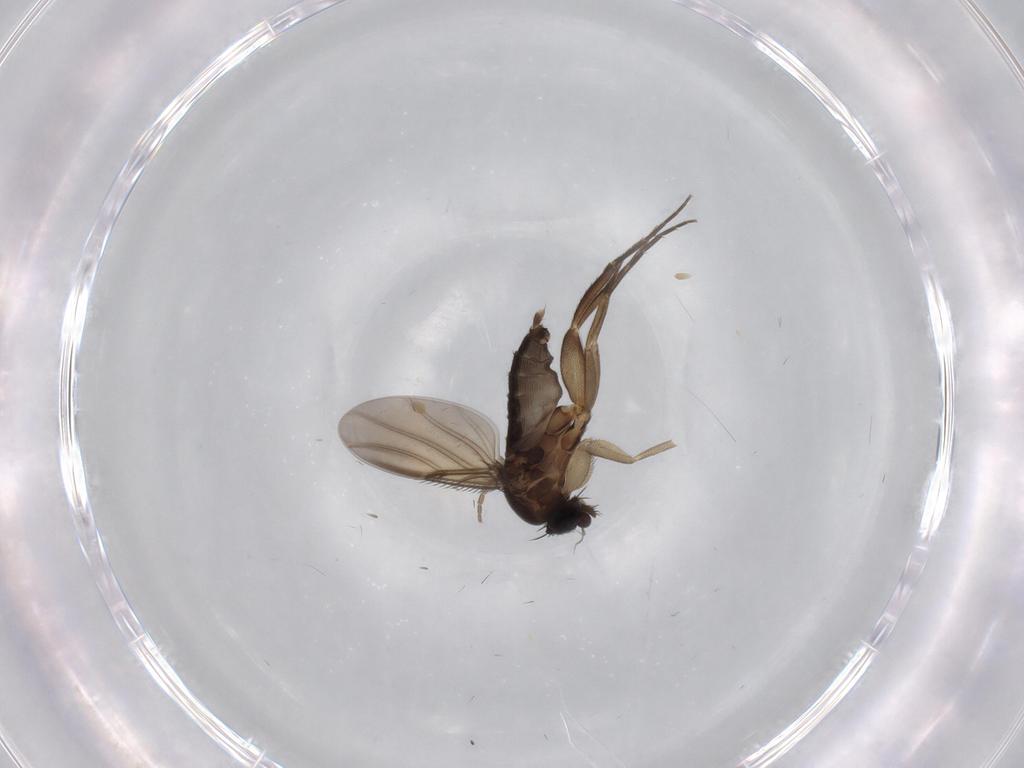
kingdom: Animalia
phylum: Arthropoda
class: Insecta
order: Diptera
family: Phoridae
